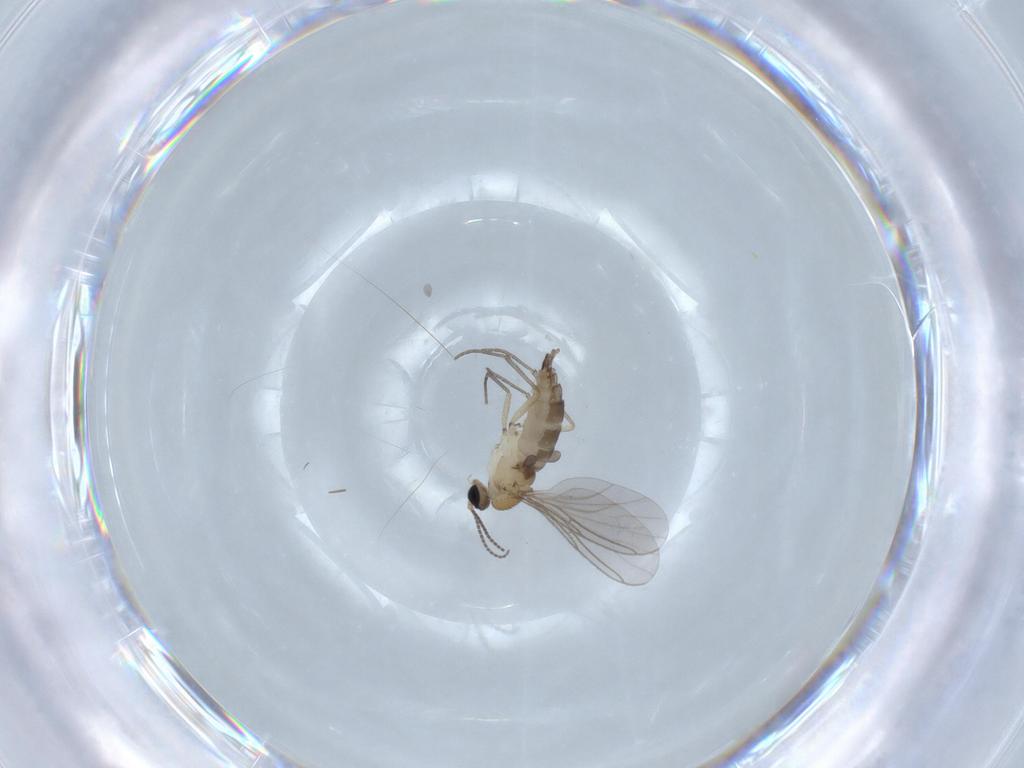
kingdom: Animalia
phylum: Arthropoda
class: Insecta
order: Diptera
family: Sciaridae
